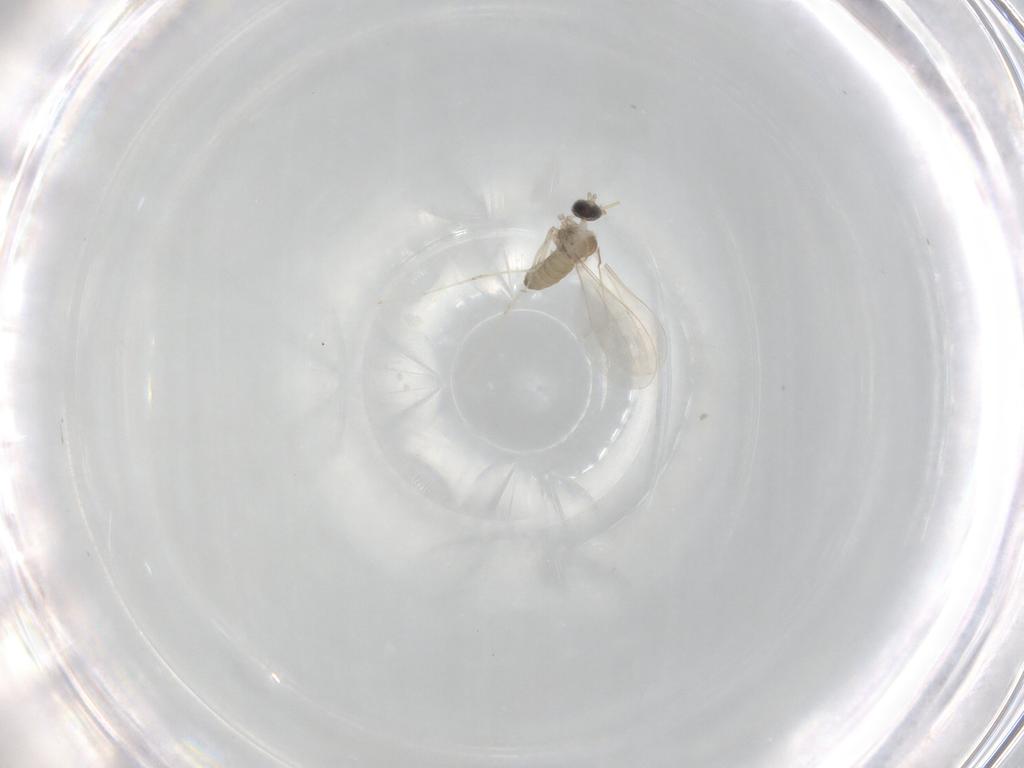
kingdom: Animalia
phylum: Arthropoda
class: Insecta
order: Diptera
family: Cecidomyiidae
